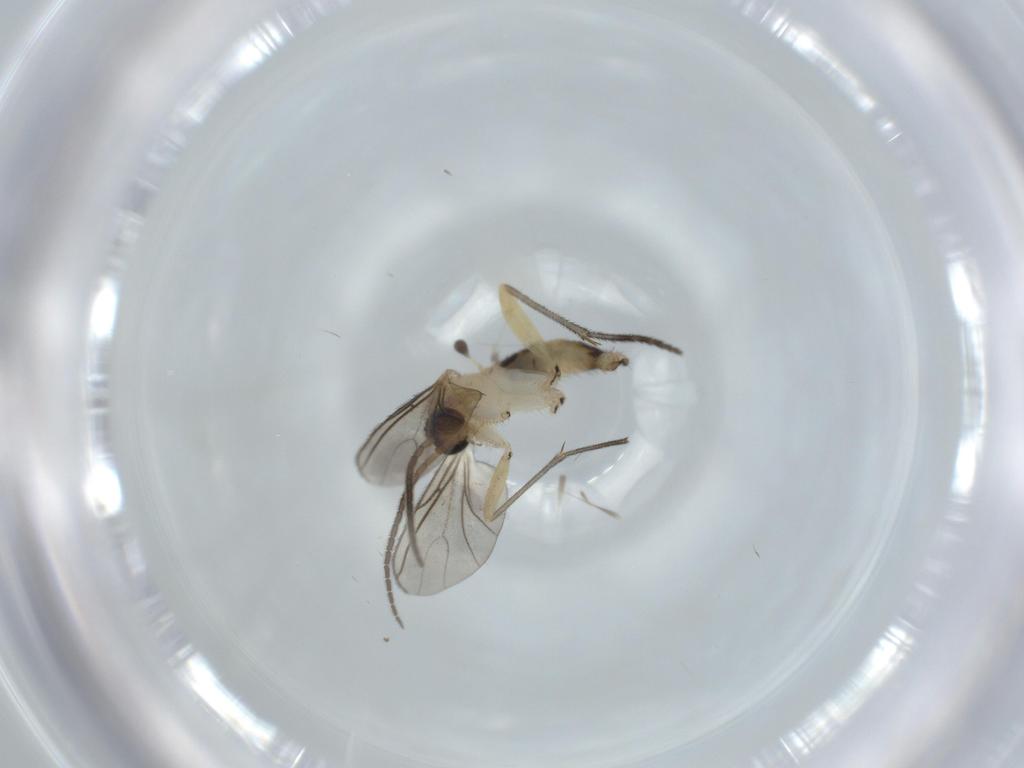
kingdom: Animalia
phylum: Arthropoda
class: Insecta
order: Diptera
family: Sciaridae
